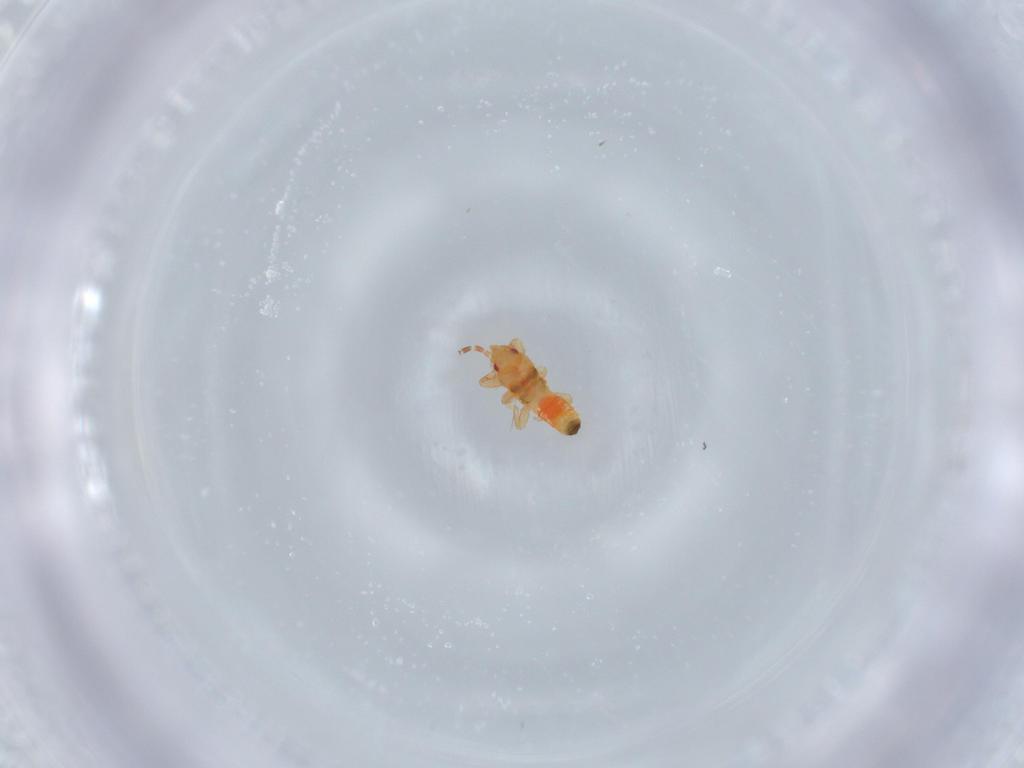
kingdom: Animalia
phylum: Arthropoda
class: Insecta
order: Hemiptera
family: Blissidae
